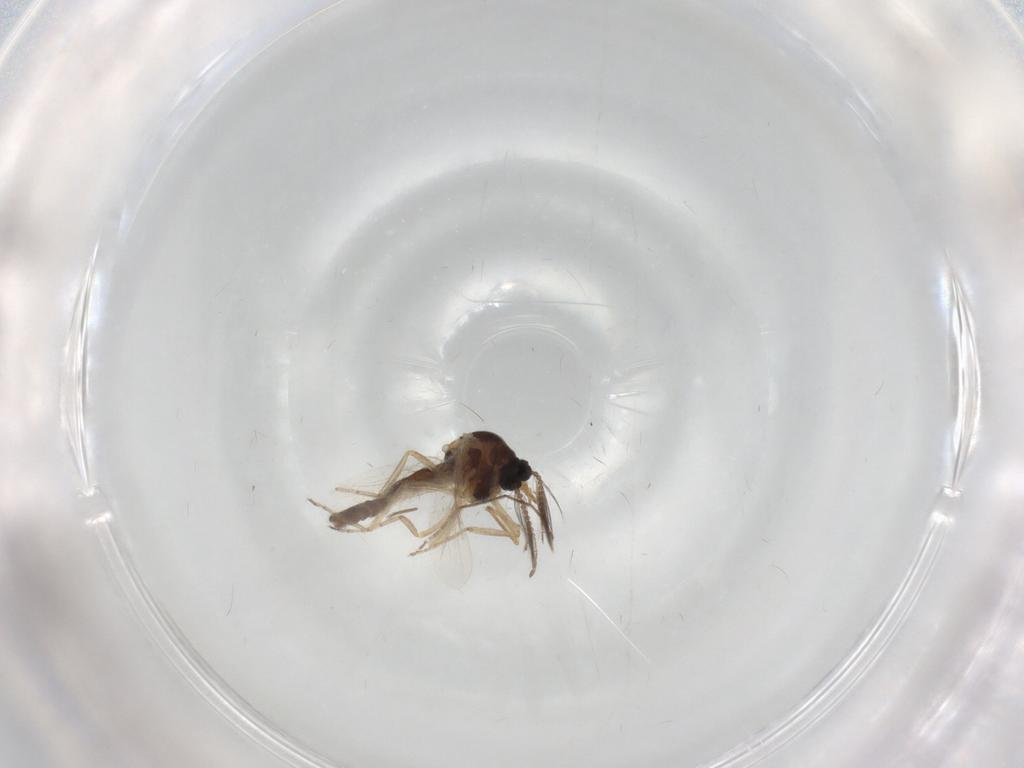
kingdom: Animalia
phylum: Arthropoda
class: Insecta
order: Diptera
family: Ceratopogonidae
